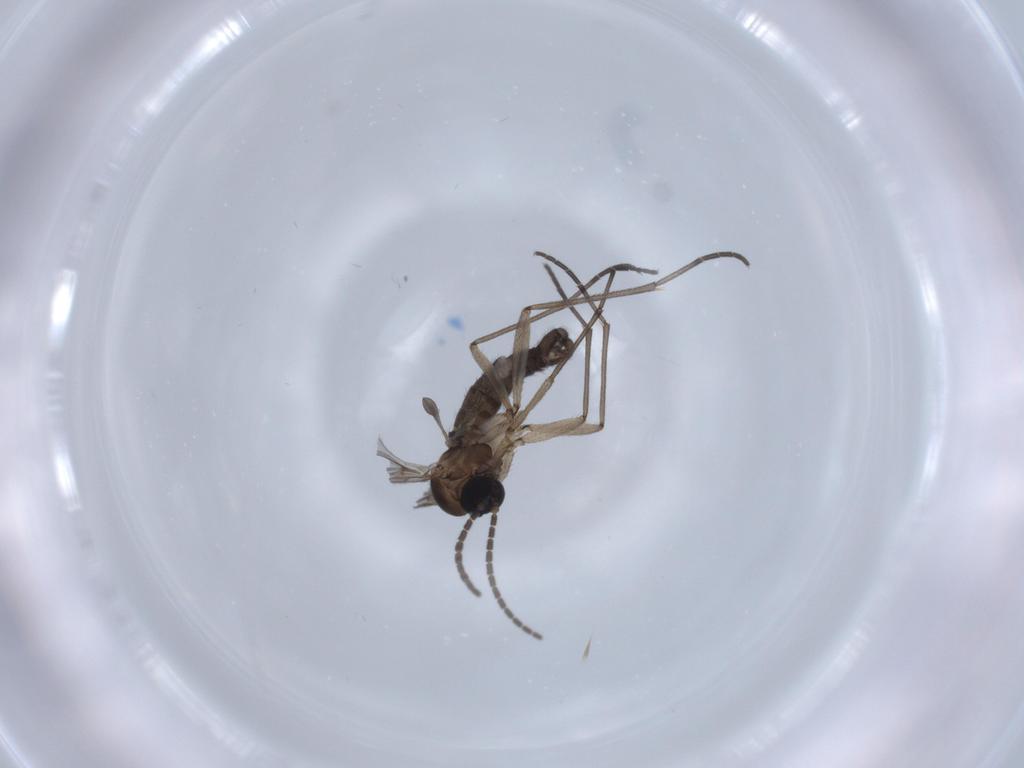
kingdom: Animalia
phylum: Arthropoda
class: Insecta
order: Diptera
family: Sciaridae
